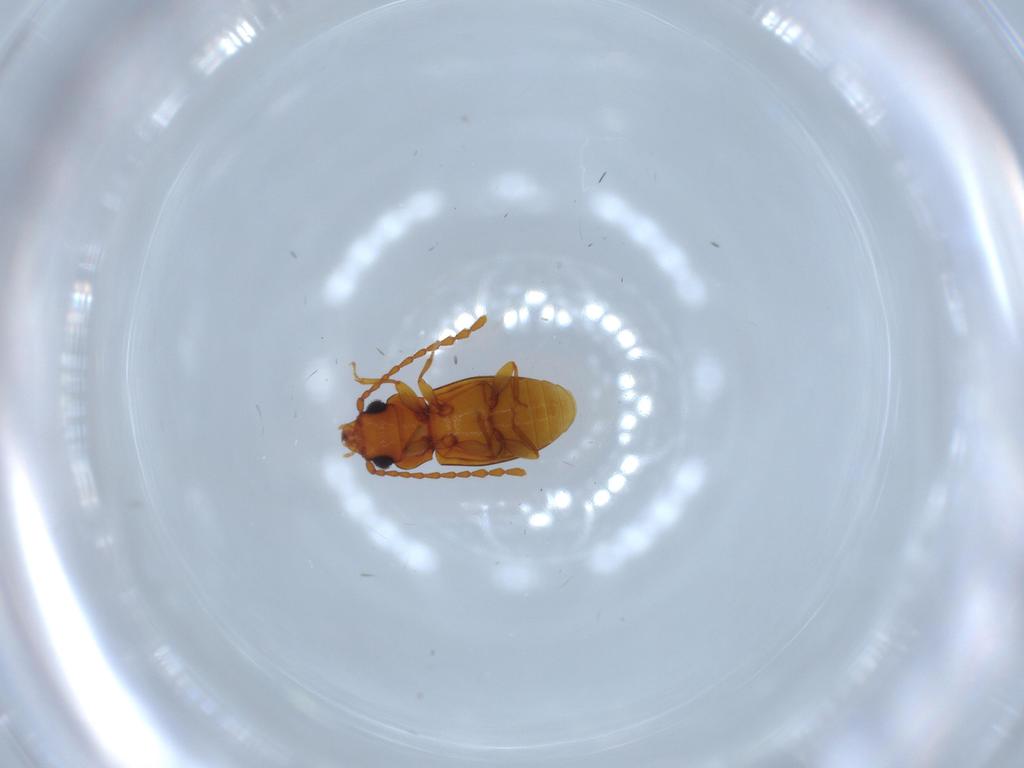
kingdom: Animalia
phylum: Arthropoda
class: Insecta
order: Coleoptera
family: Laemophloeidae
